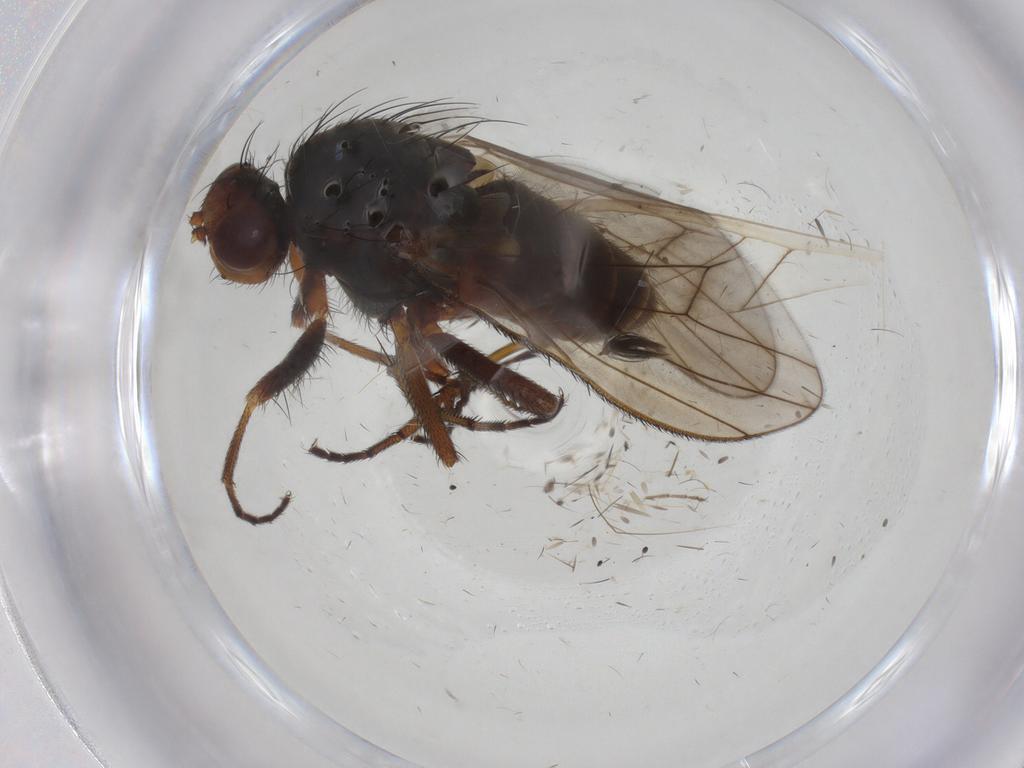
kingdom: Animalia
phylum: Arthropoda
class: Insecta
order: Diptera
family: Heleomyzidae
